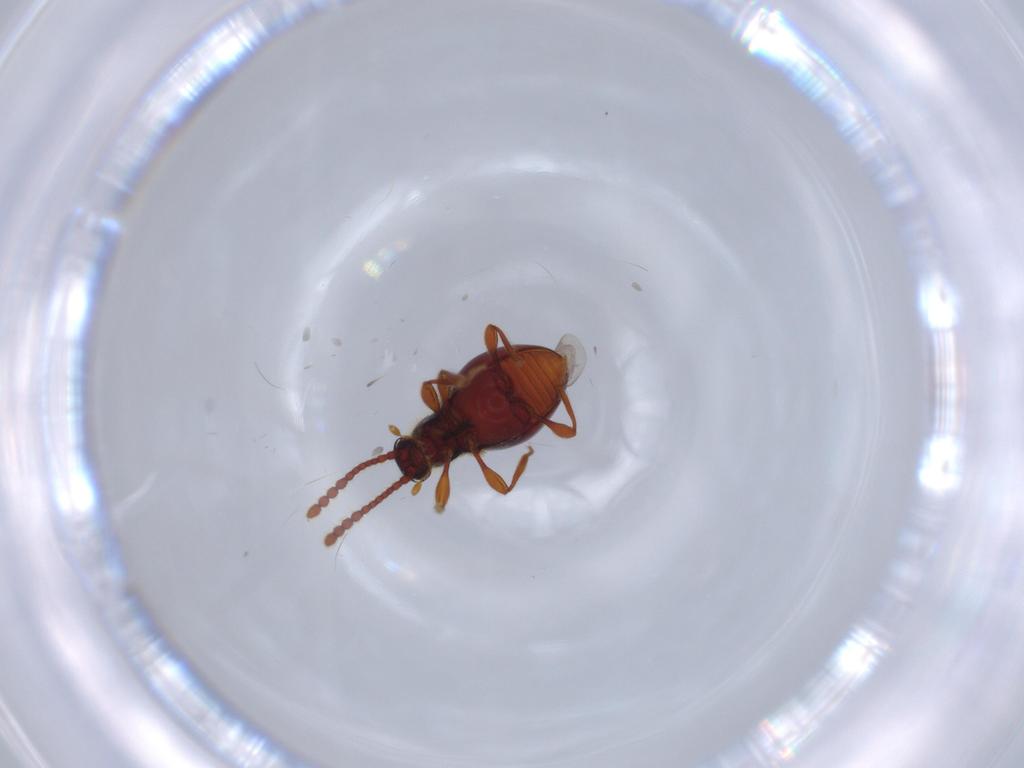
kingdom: Animalia
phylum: Arthropoda
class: Insecta
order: Coleoptera
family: Staphylinidae
